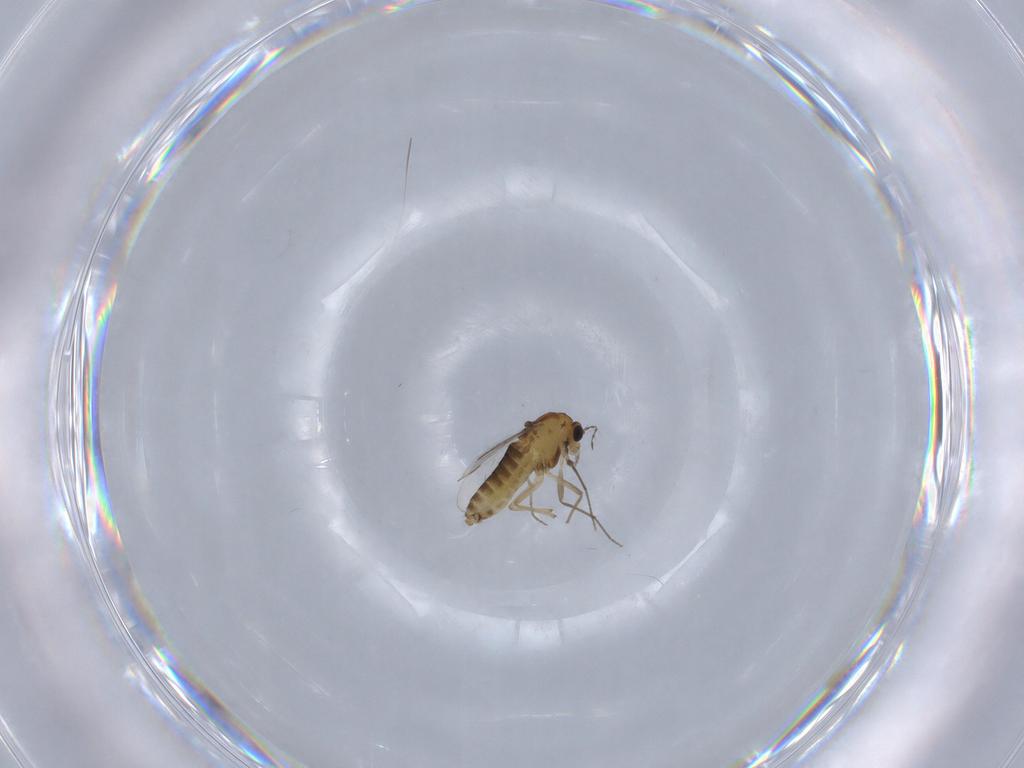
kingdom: Animalia
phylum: Arthropoda
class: Insecta
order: Diptera
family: Chironomidae
